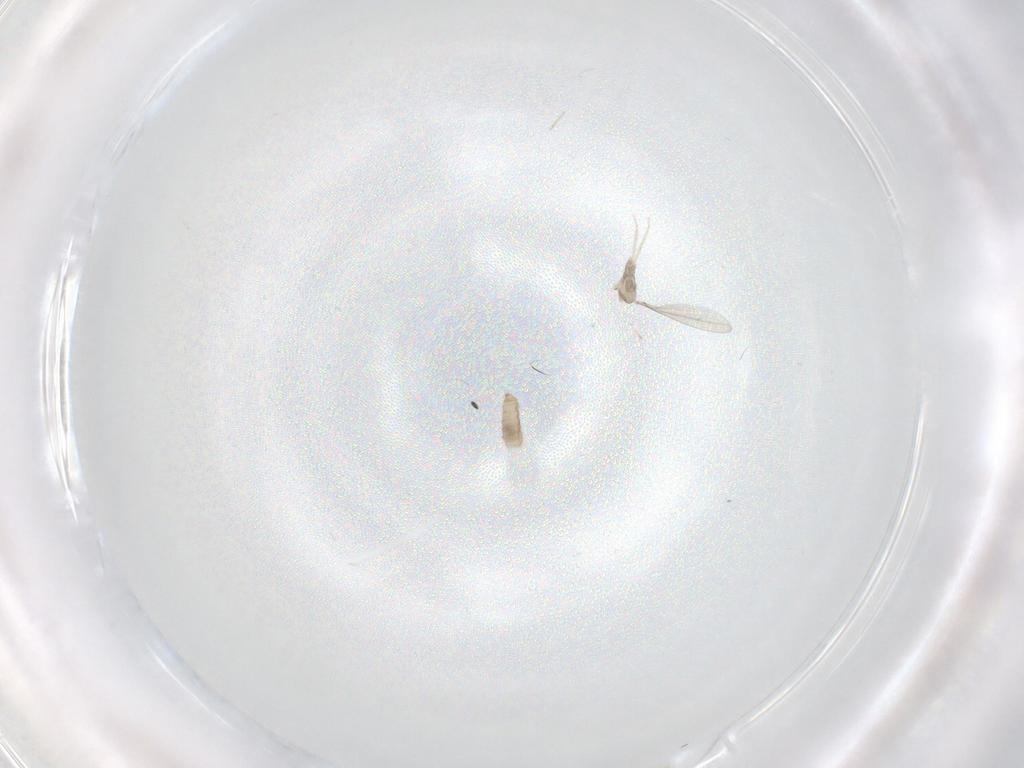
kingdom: Animalia
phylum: Arthropoda
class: Insecta
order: Diptera
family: Cecidomyiidae
